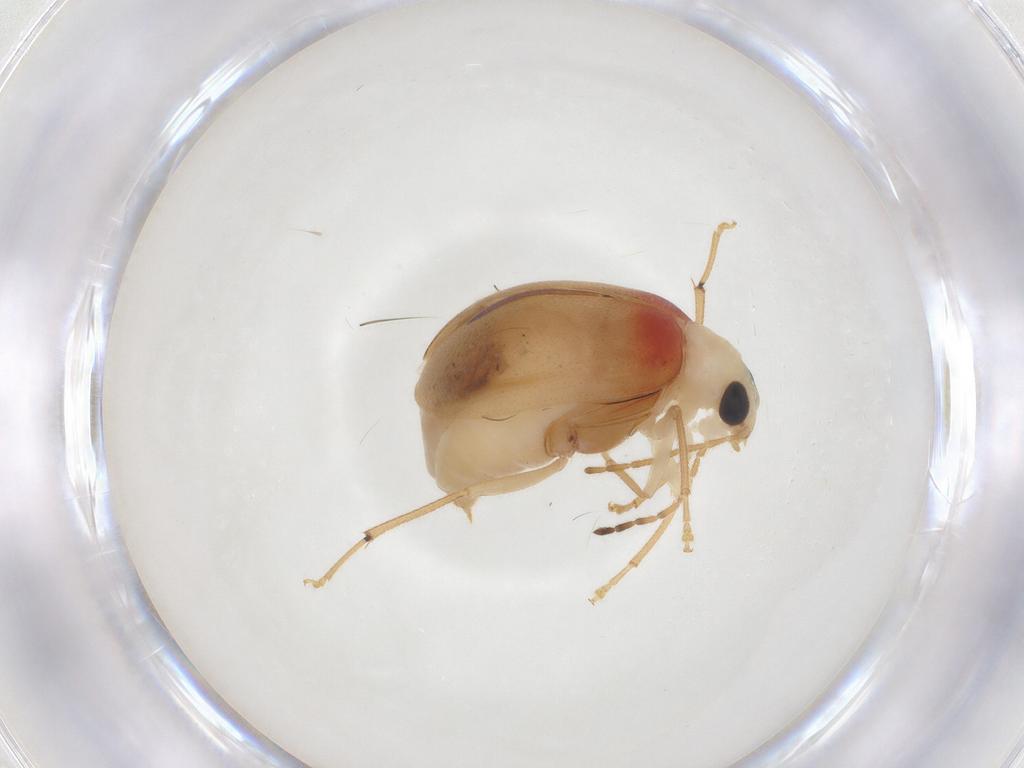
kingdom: Animalia
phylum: Arthropoda
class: Insecta
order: Coleoptera
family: Chrysomelidae
